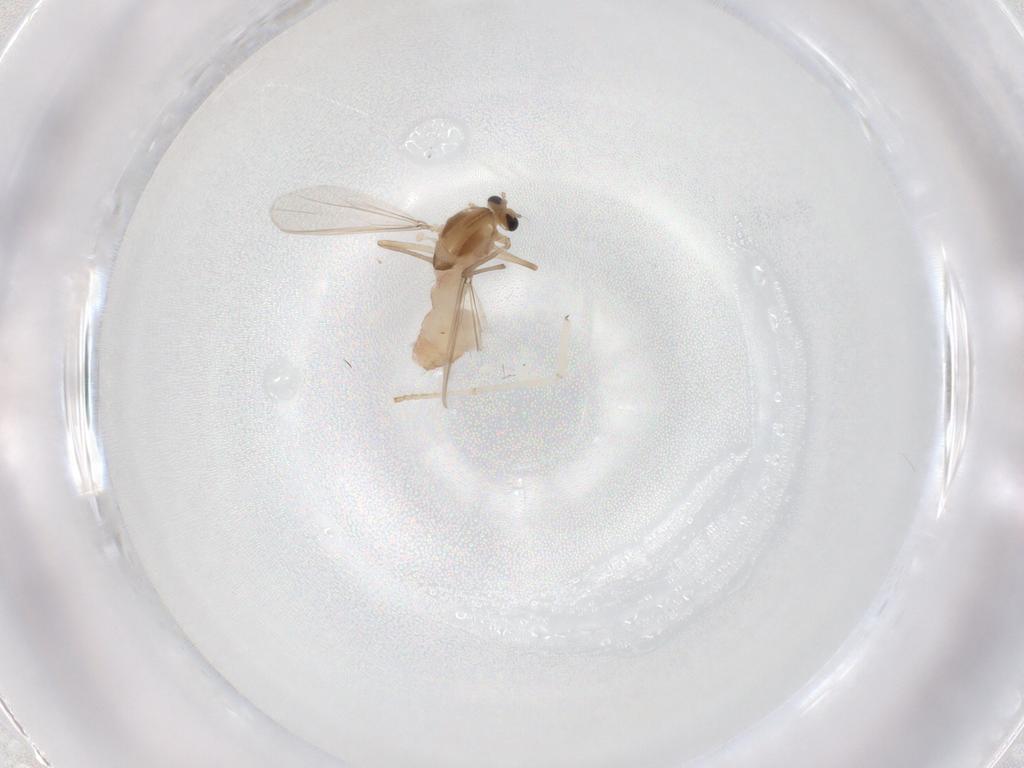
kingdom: Animalia
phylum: Arthropoda
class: Insecta
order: Diptera
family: Chironomidae
